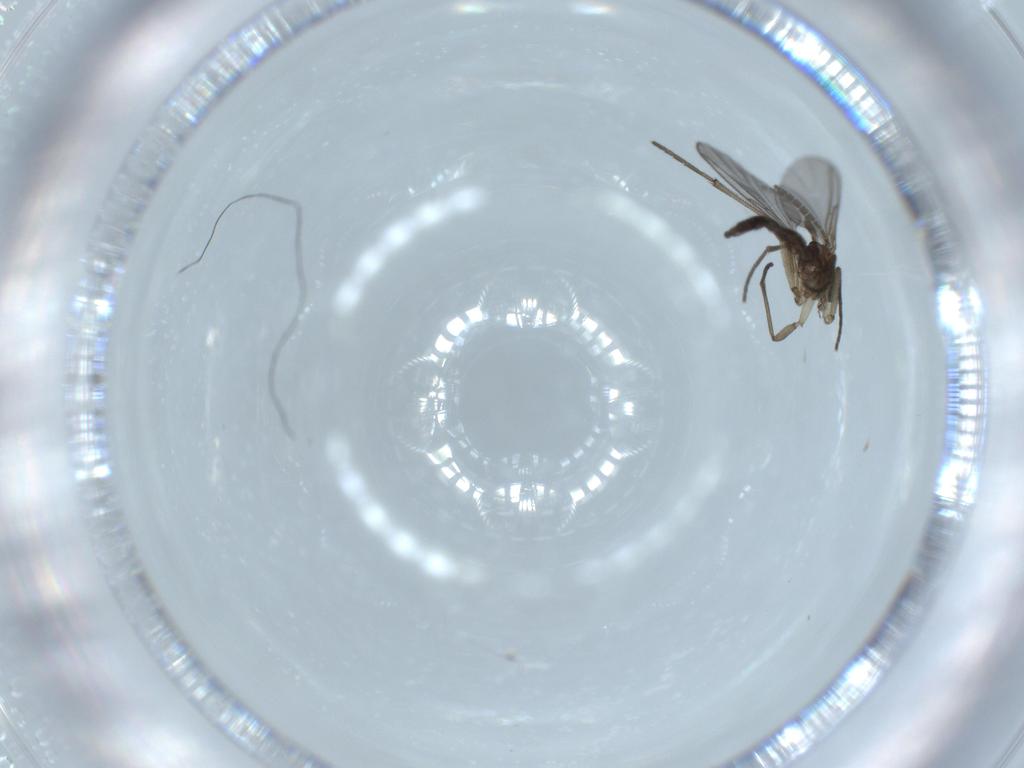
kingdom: Animalia
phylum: Arthropoda
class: Insecta
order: Diptera
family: Sciaridae
